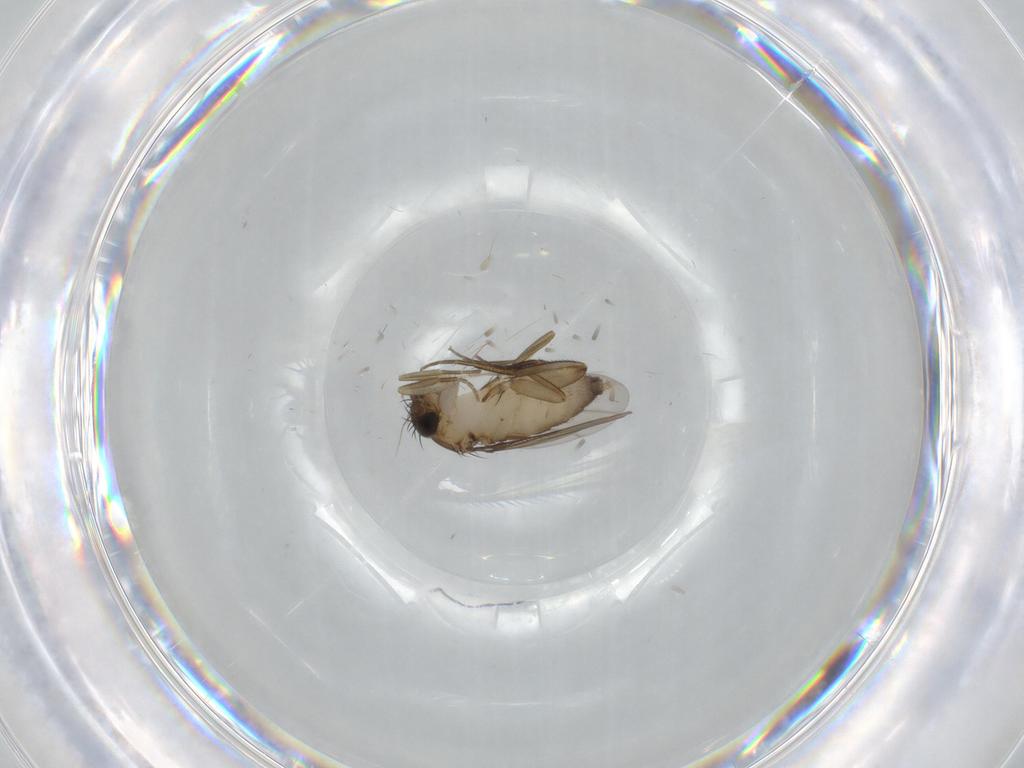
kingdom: Animalia
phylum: Arthropoda
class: Insecta
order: Diptera
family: Phoridae
